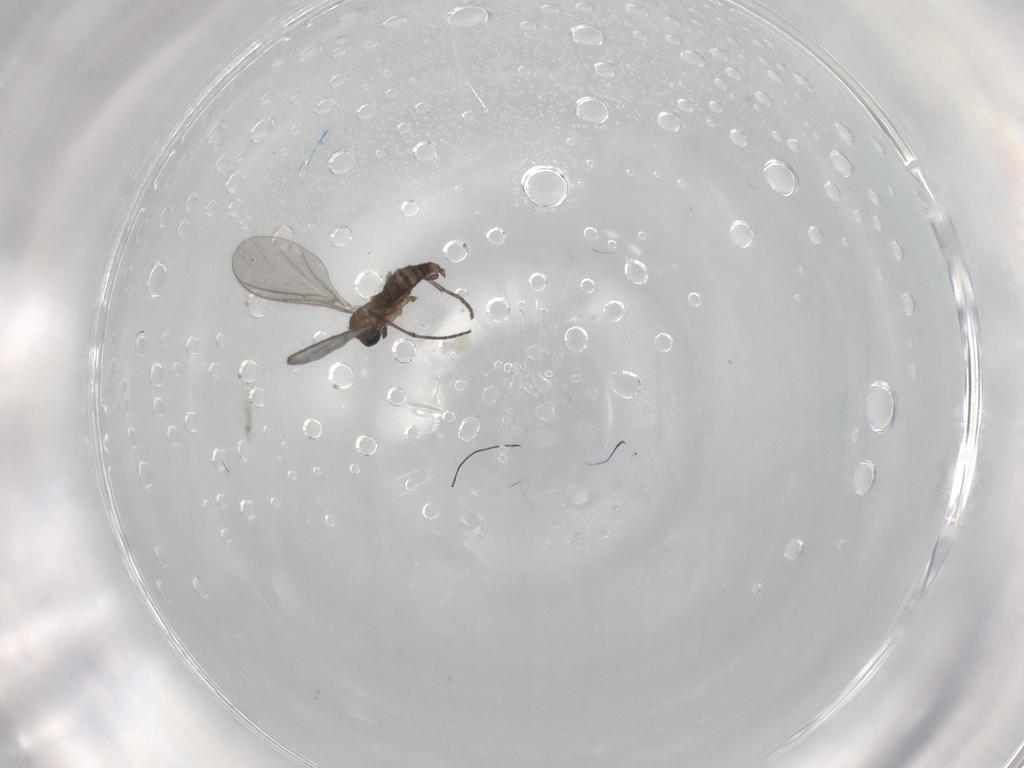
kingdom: Animalia
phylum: Arthropoda
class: Insecta
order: Diptera
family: Sciaridae
